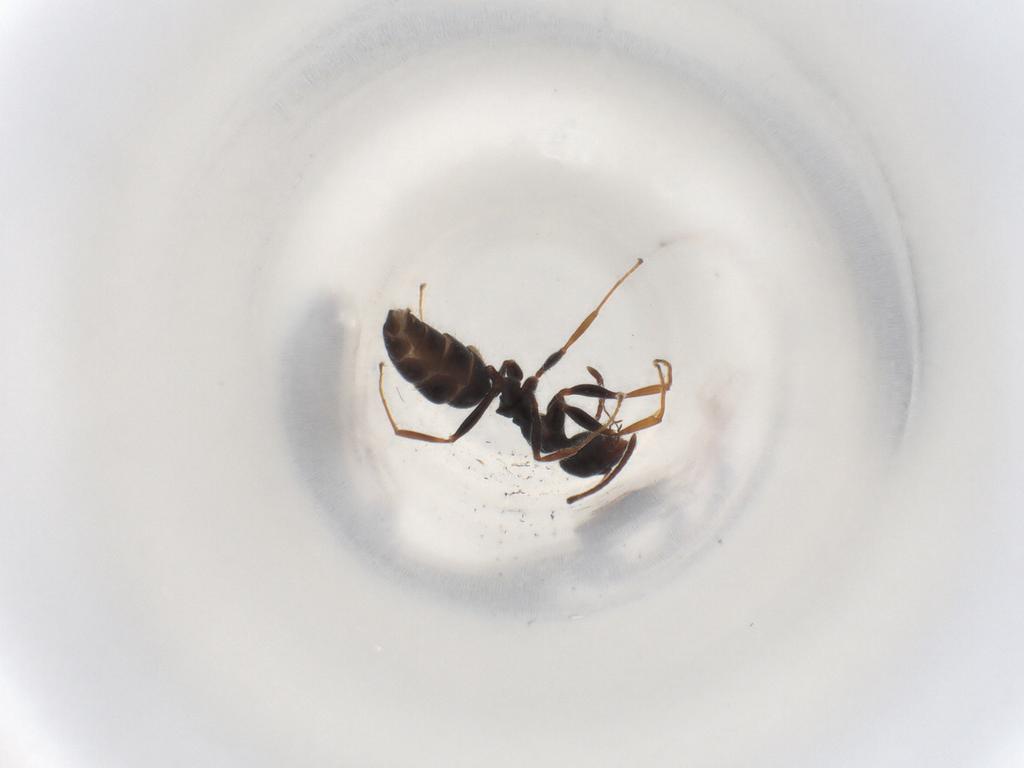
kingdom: Animalia
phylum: Arthropoda
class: Insecta
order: Hymenoptera
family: Formicidae
